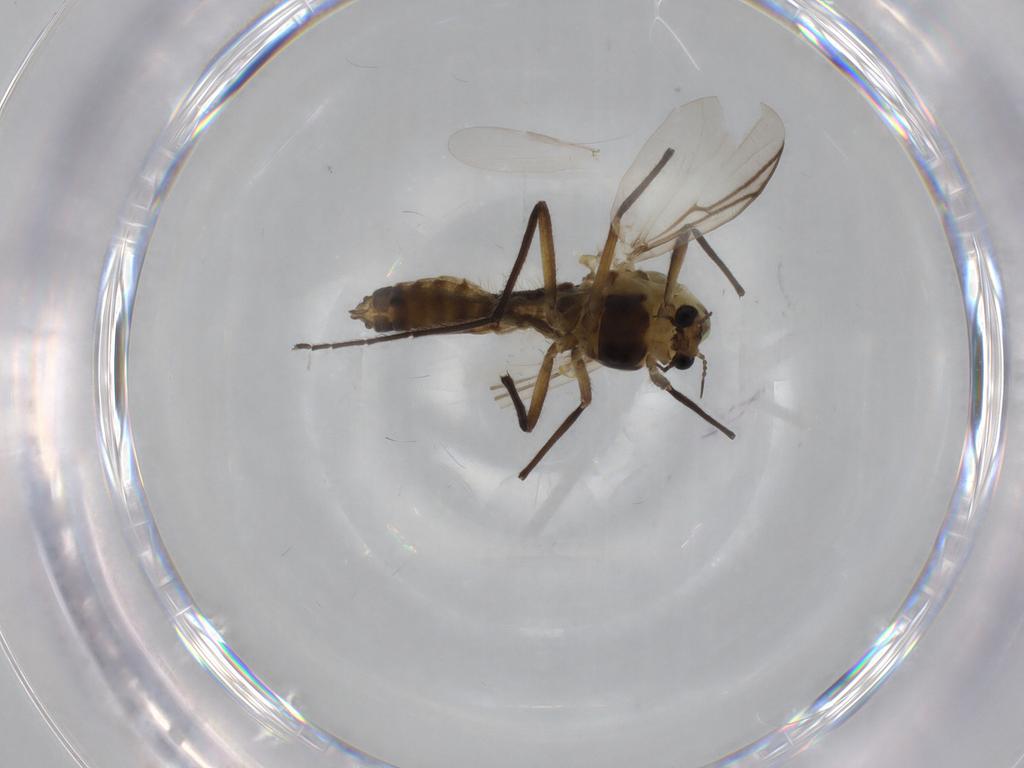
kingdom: Animalia
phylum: Arthropoda
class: Insecta
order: Diptera
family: Chironomidae
